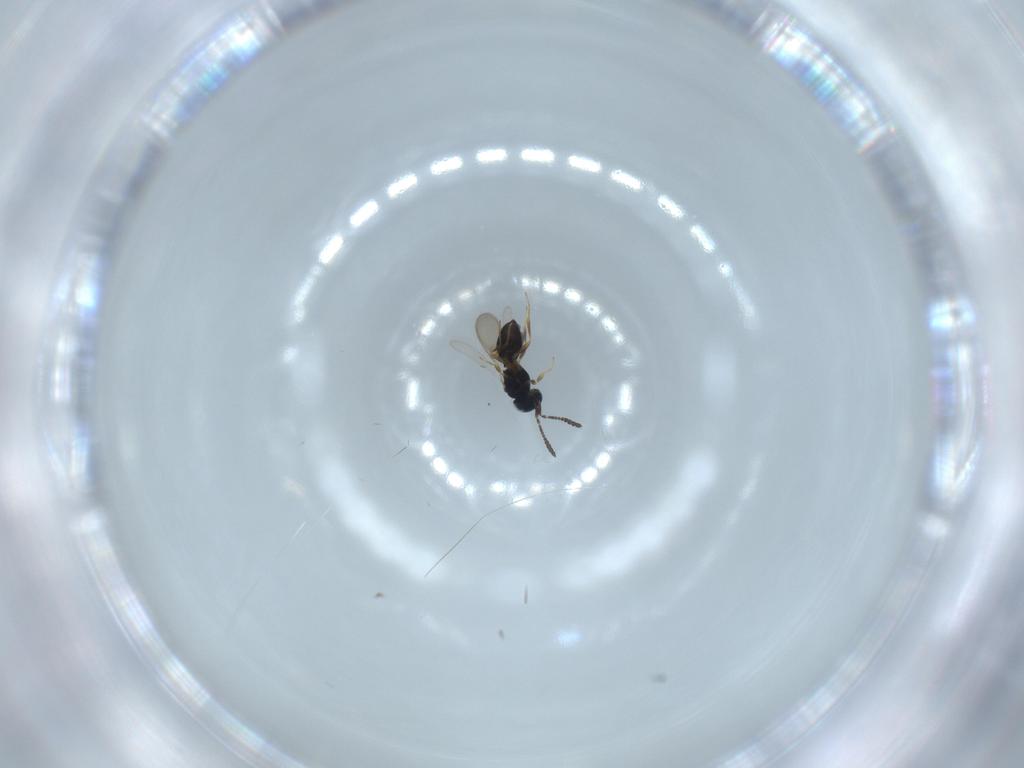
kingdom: Animalia
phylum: Arthropoda
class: Insecta
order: Hymenoptera
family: Scelionidae
